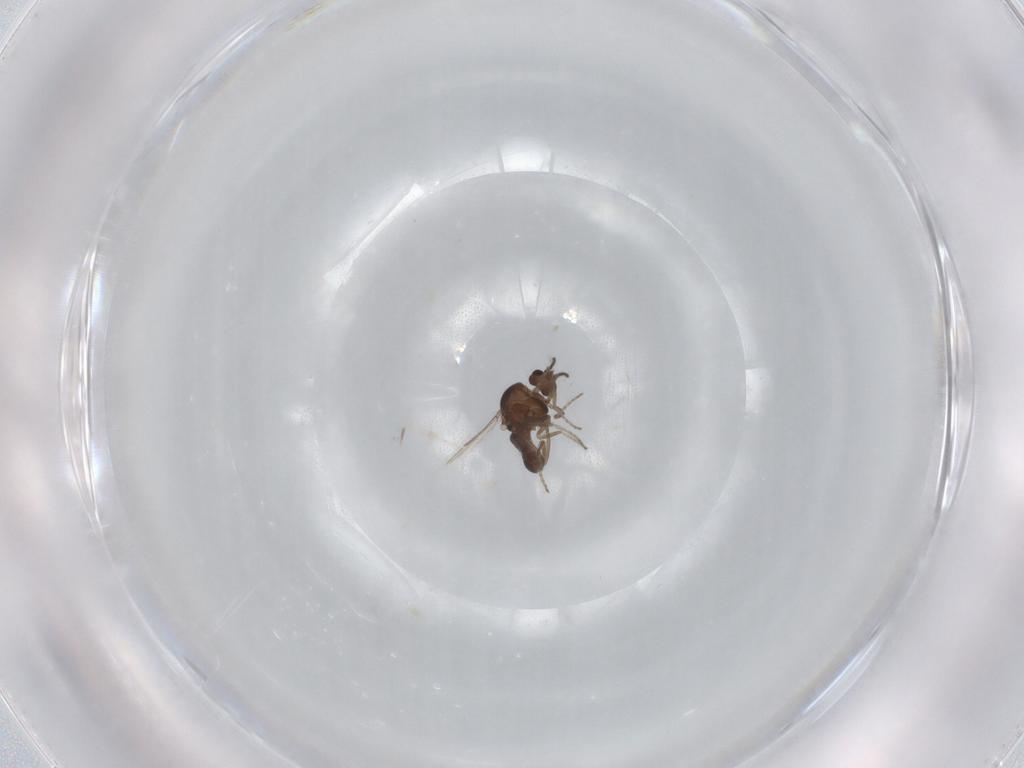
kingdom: Animalia
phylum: Arthropoda
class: Insecta
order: Diptera
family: Ceratopogonidae
